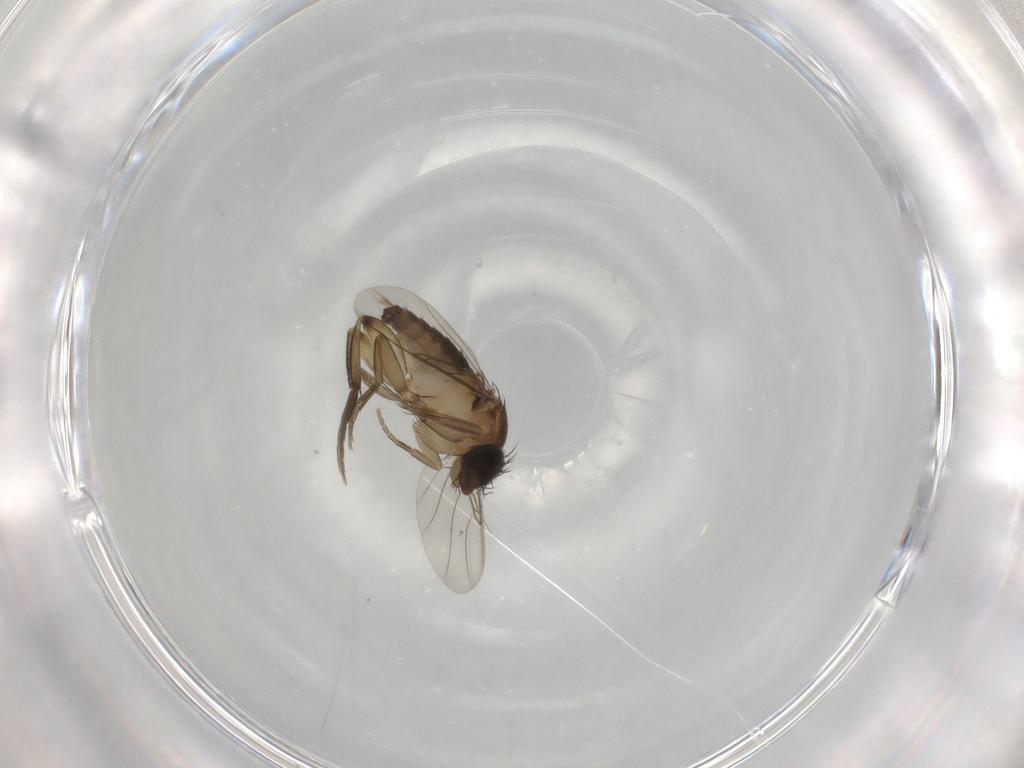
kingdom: Animalia
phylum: Arthropoda
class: Insecta
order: Diptera
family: Phoridae
